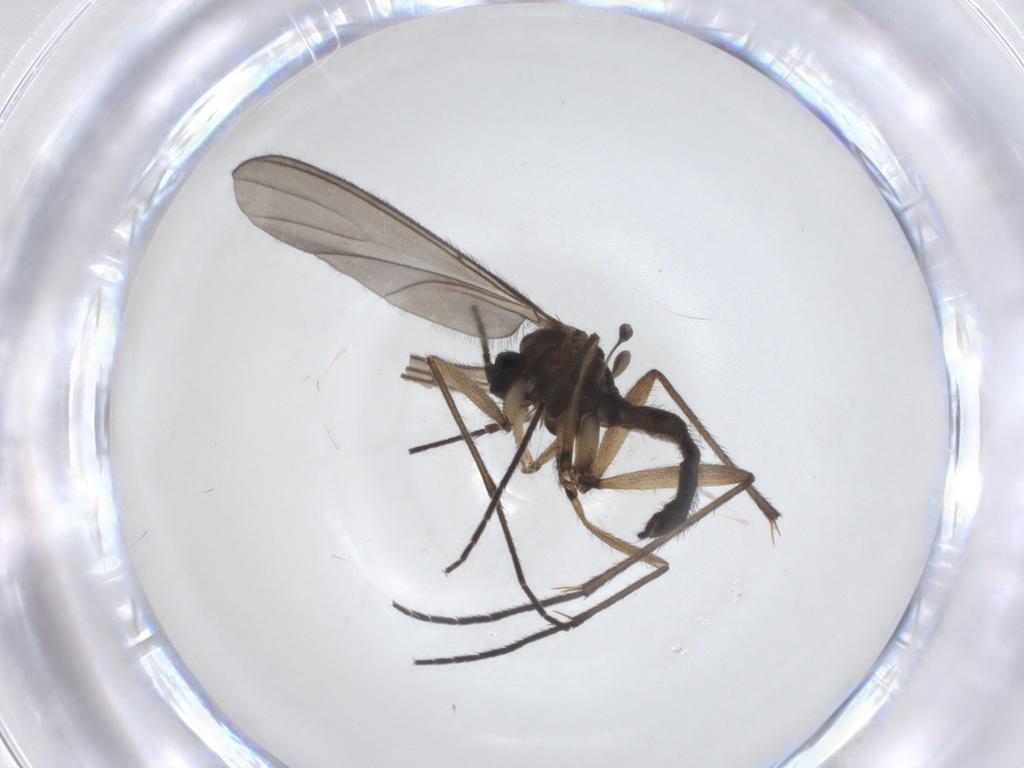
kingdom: Animalia
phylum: Arthropoda
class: Insecta
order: Diptera
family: Sciaridae
